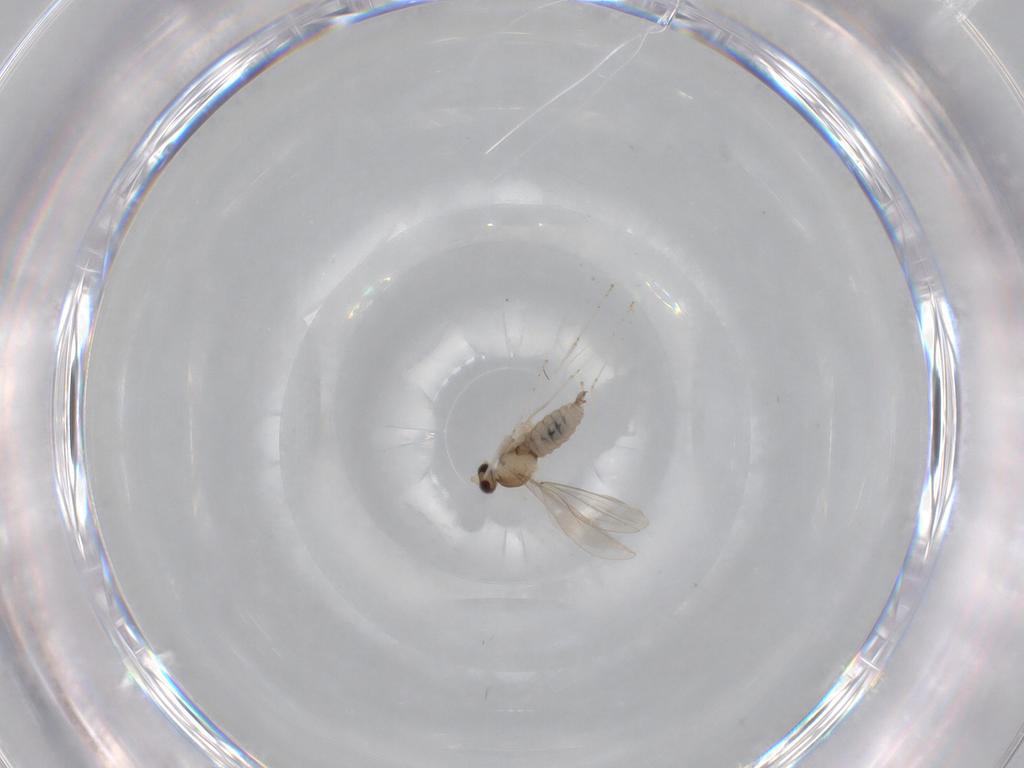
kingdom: Animalia
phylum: Arthropoda
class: Insecta
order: Diptera
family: Cecidomyiidae
